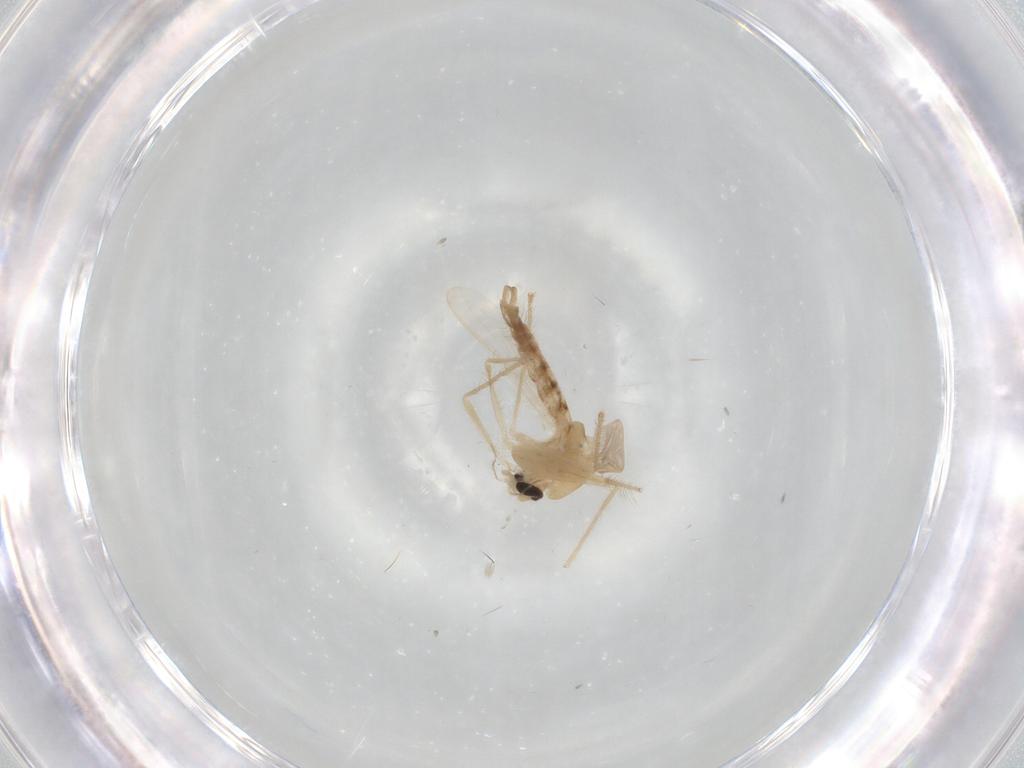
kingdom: Animalia
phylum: Arthropoda
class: Insecta
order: Diptera
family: Chironomidae
